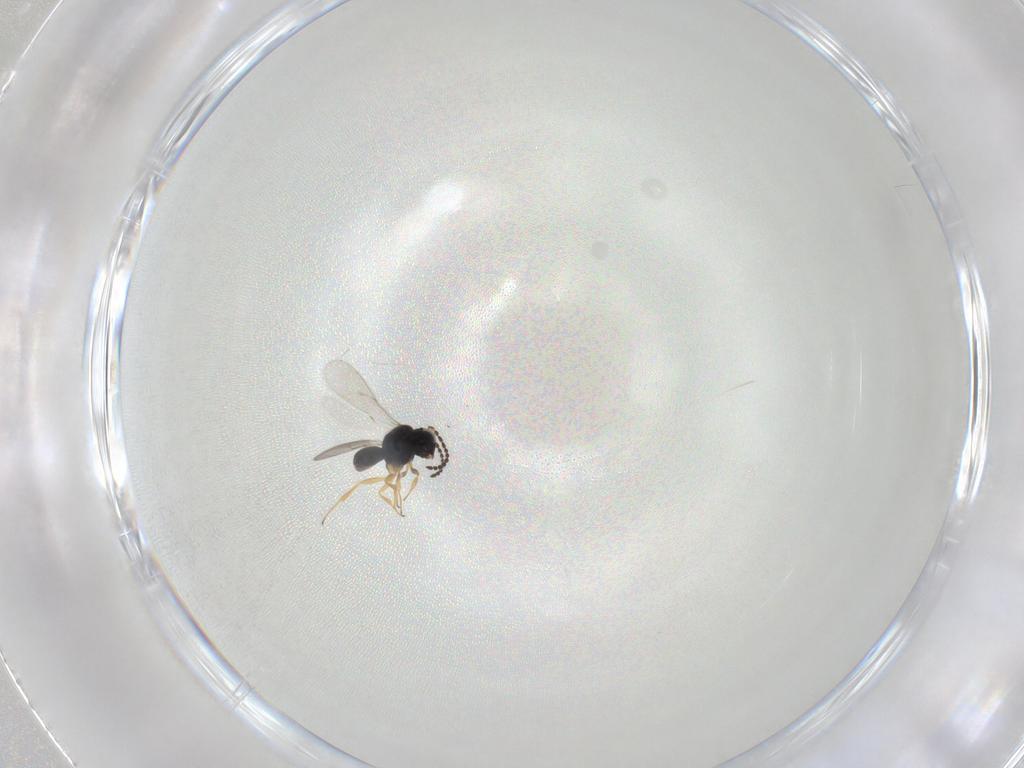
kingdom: Animalia
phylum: Arthropoda
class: Insecta
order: Hymenoptera
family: Scelionidae
